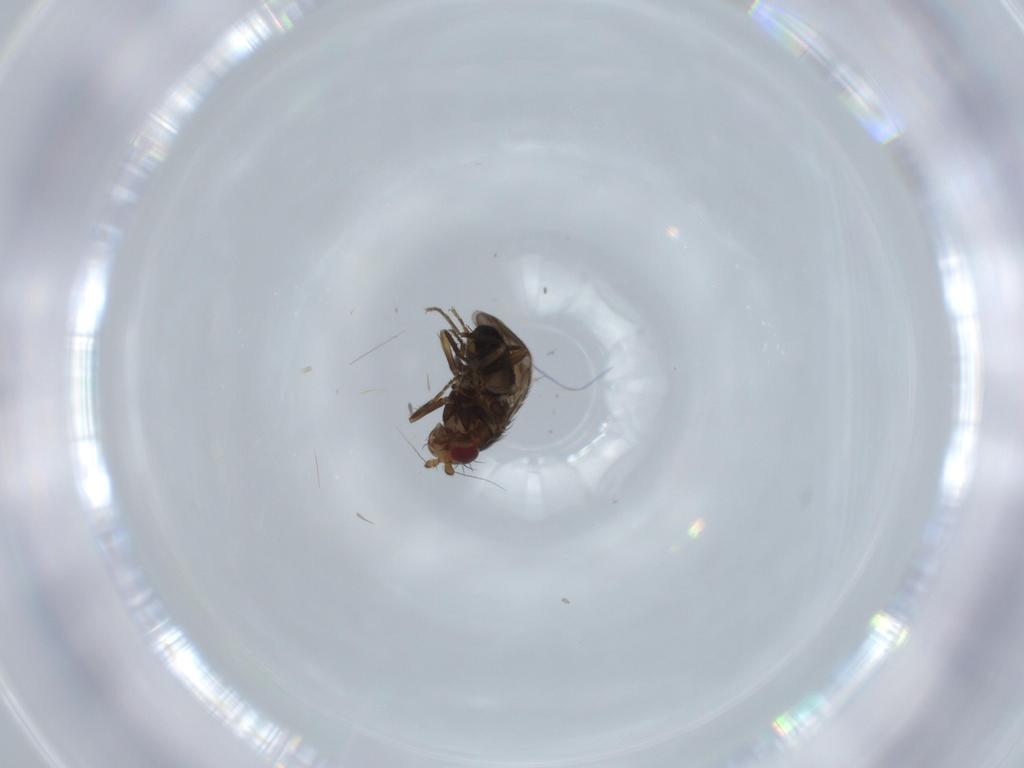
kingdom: Animalia
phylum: Arthropoda
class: Insecta
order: Diptera
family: Cecidomyiidae
